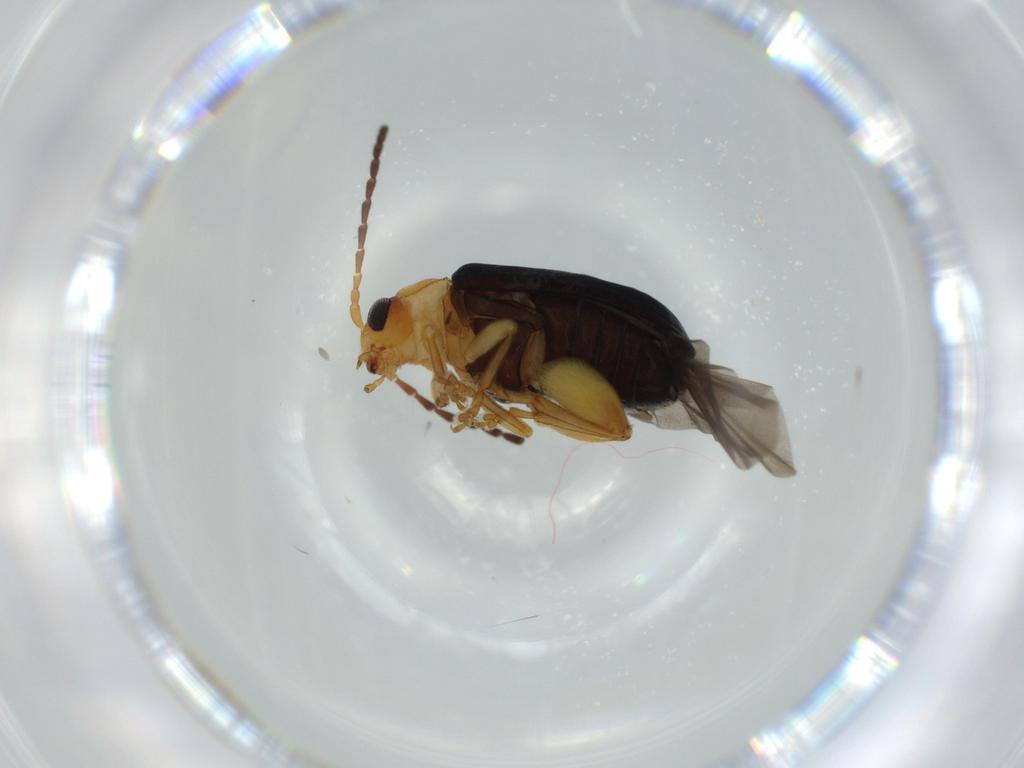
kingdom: Animalia
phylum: Arthropoda
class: Insecta
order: Coleoptera
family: Chrysomelidae
